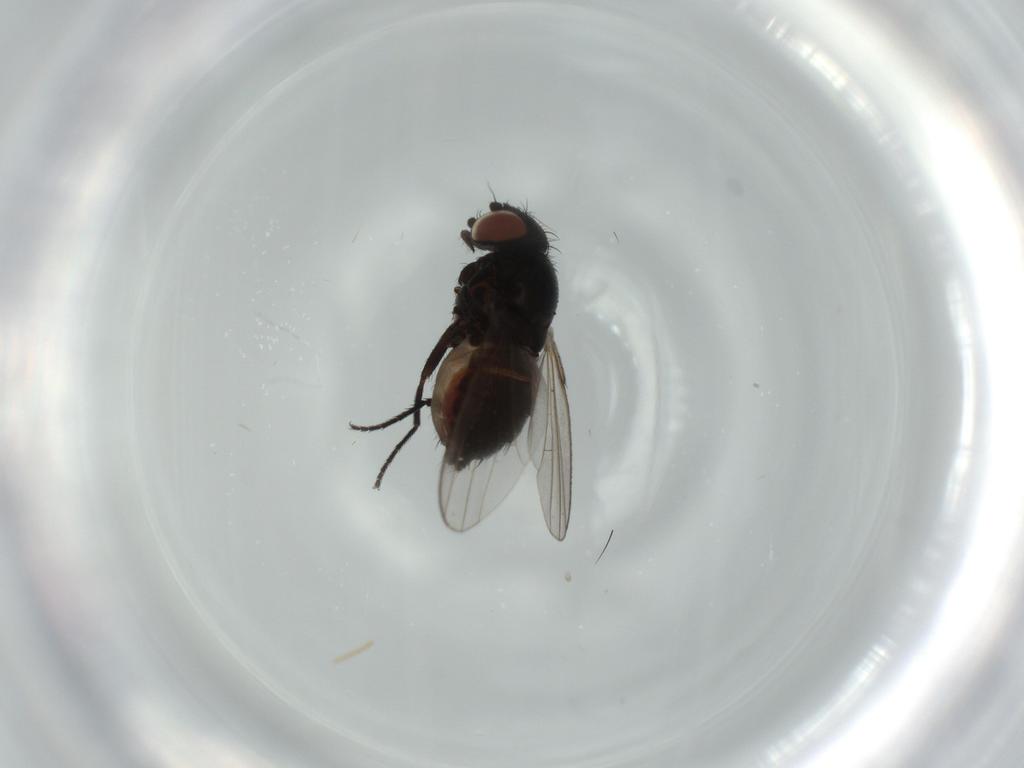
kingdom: Animalia
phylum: Arthropoda
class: Insecta
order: Diptera
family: Milichiidae
